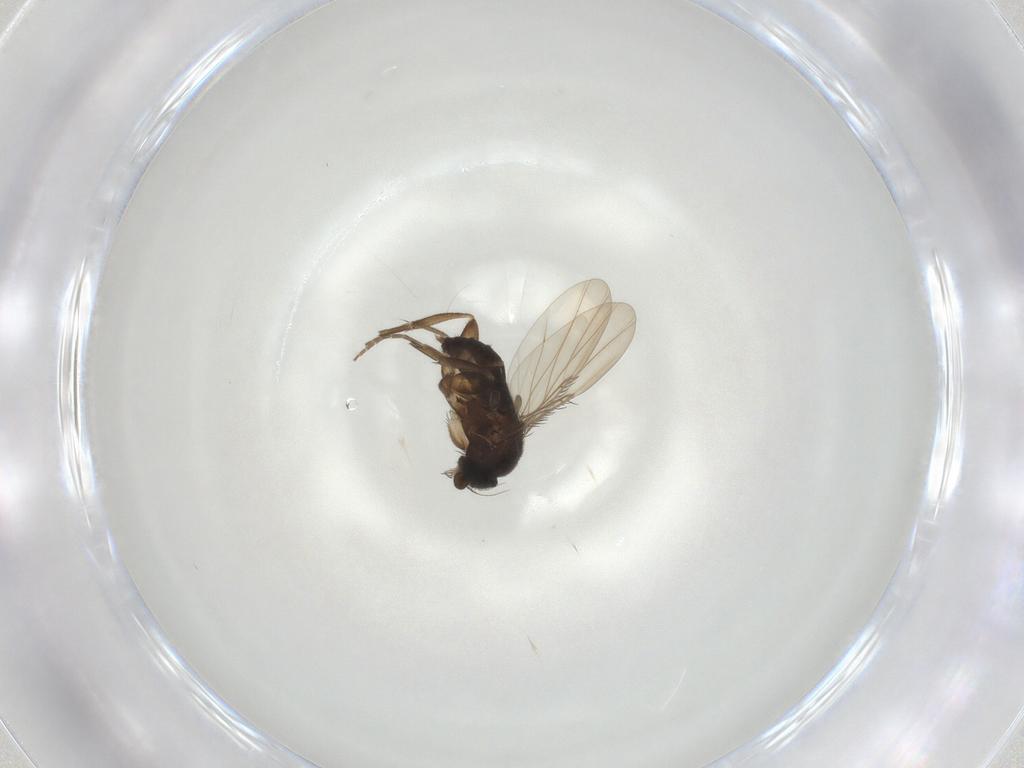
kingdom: Animalia
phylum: Arthropoda
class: Insecta
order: Diptera
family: Phoridae
